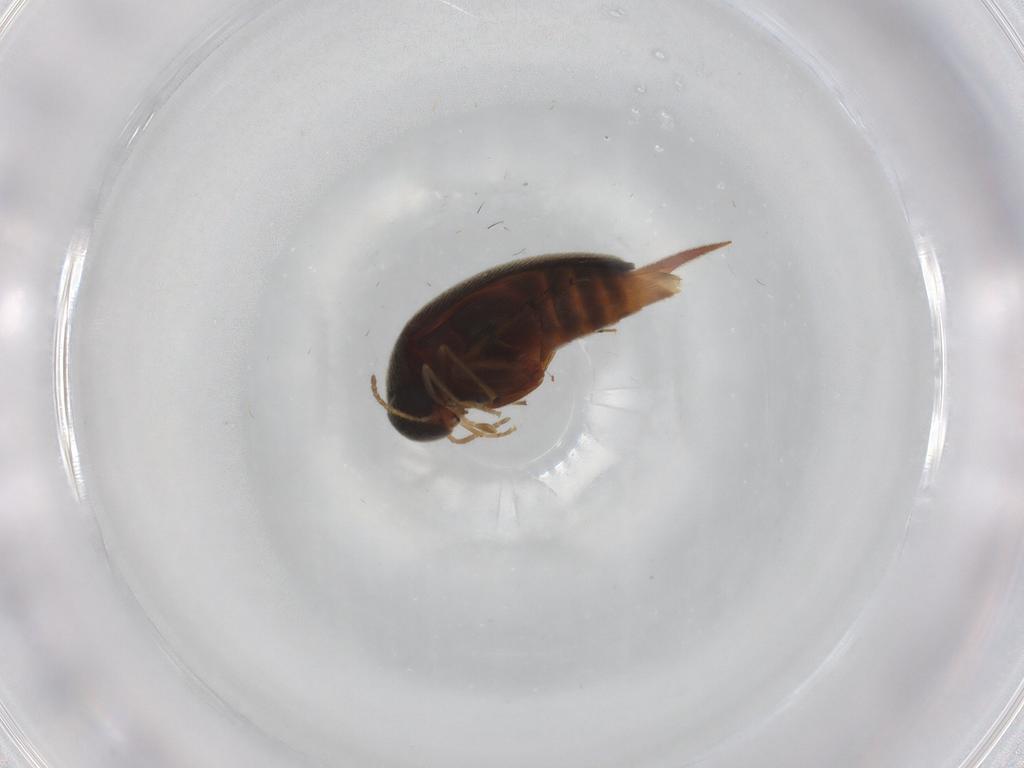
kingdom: Animalia
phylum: Arthropoda
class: Insecta
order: Coleoptera
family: Mordellidae
